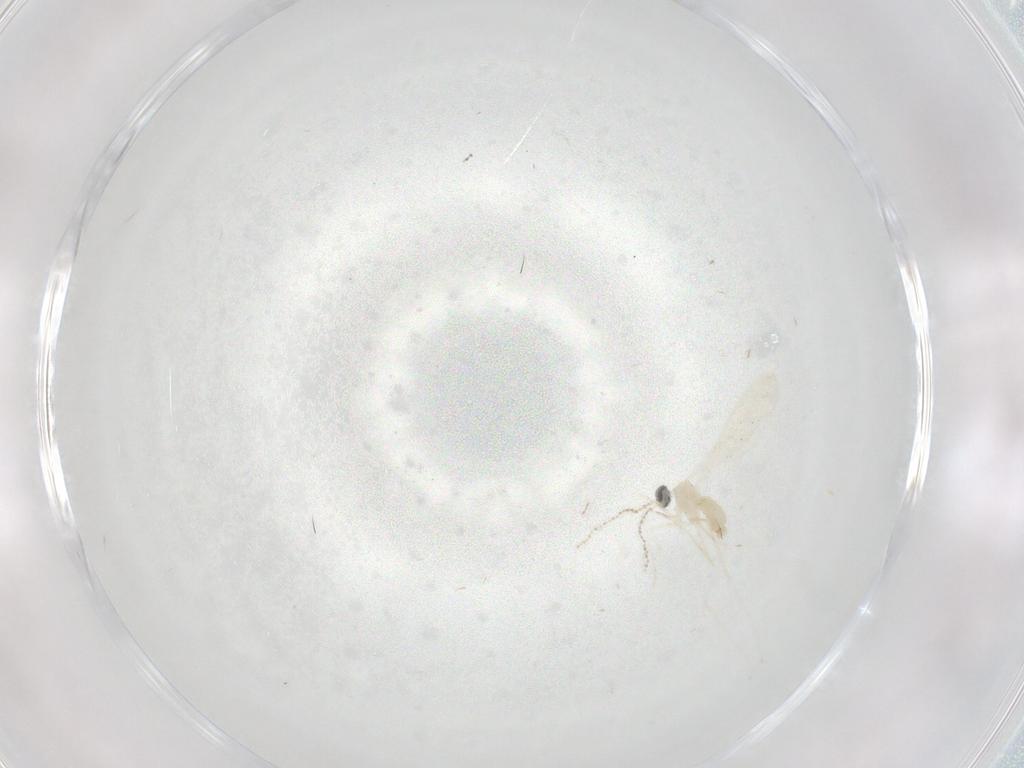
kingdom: Animalia
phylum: Arthropoda
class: Insecta
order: Diptera
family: Cecidomyiidae
